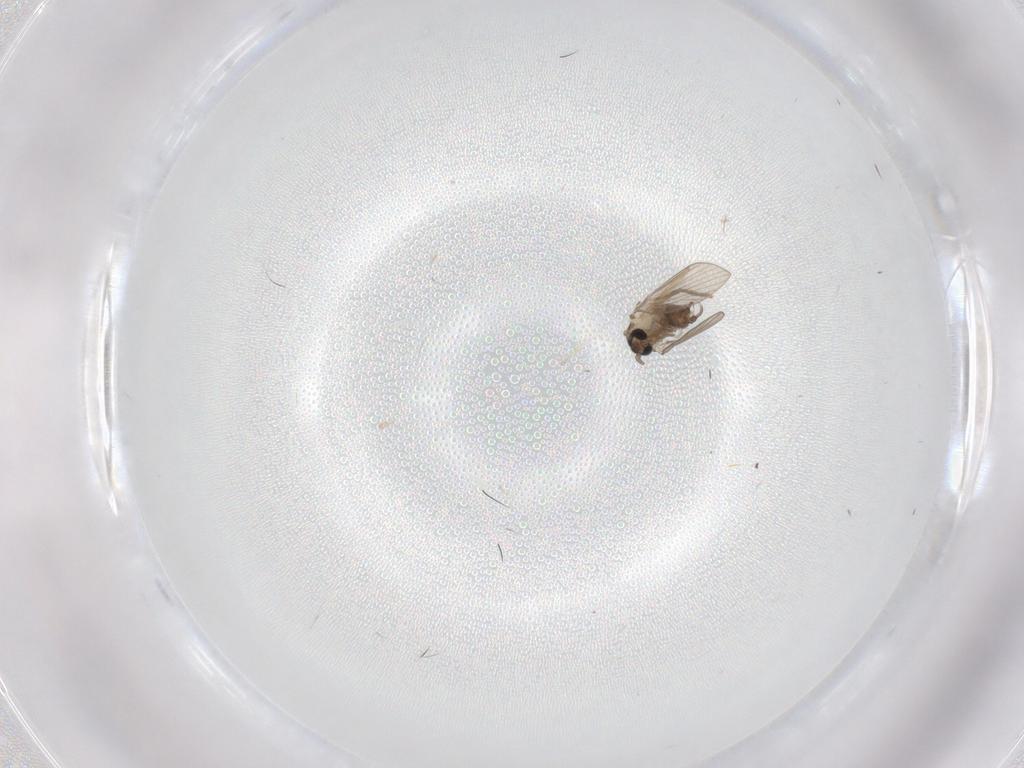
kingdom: Animalia
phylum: Arthropoda
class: Insecta
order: Diptera
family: Psychodidae
